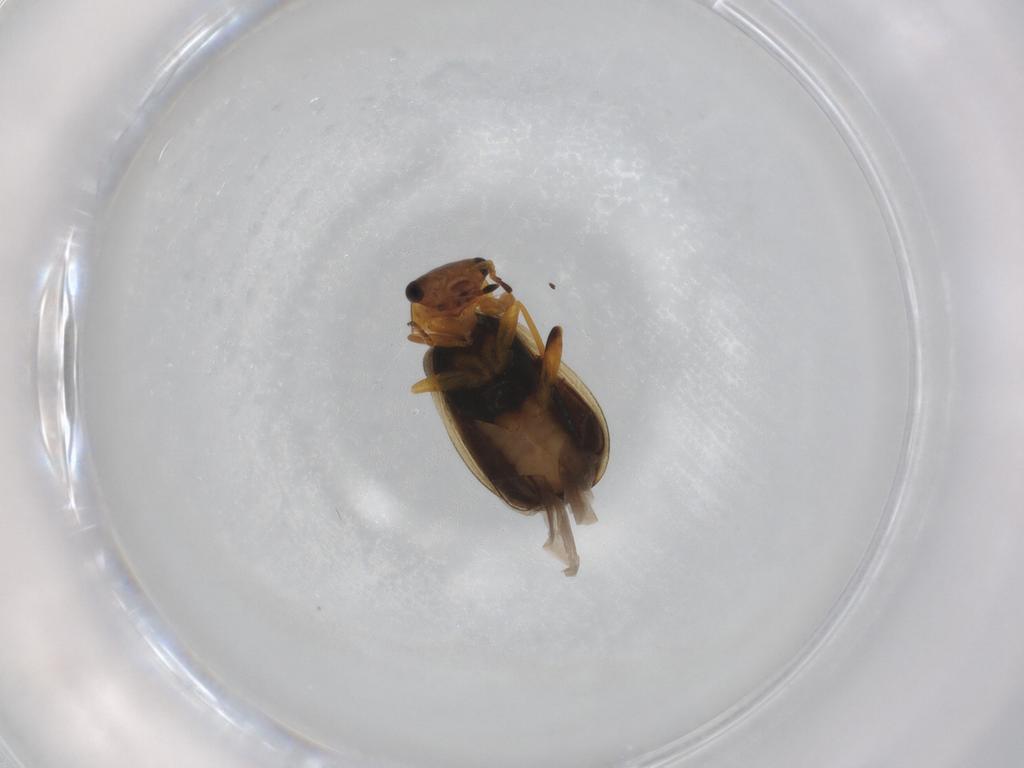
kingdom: Animalia
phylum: Arthropoda
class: Insecta
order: Coleoptera
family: Melyridae
